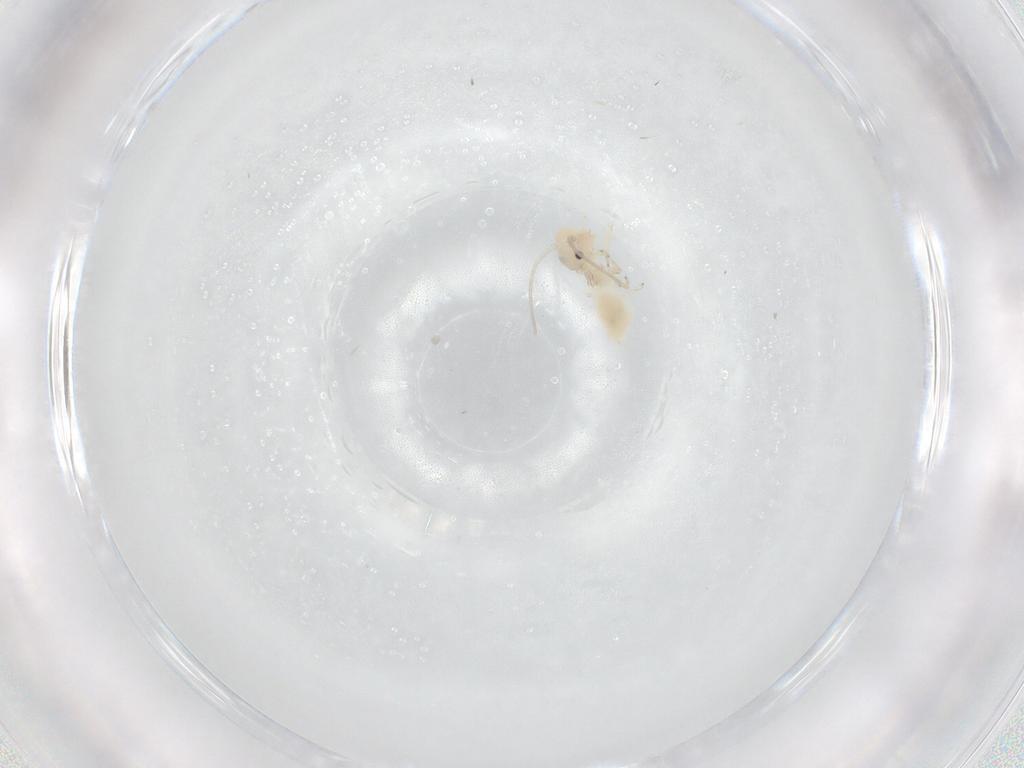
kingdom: Animalia
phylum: Arthropoda
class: Insecta
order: Psocodea
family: Caeciliusidae
